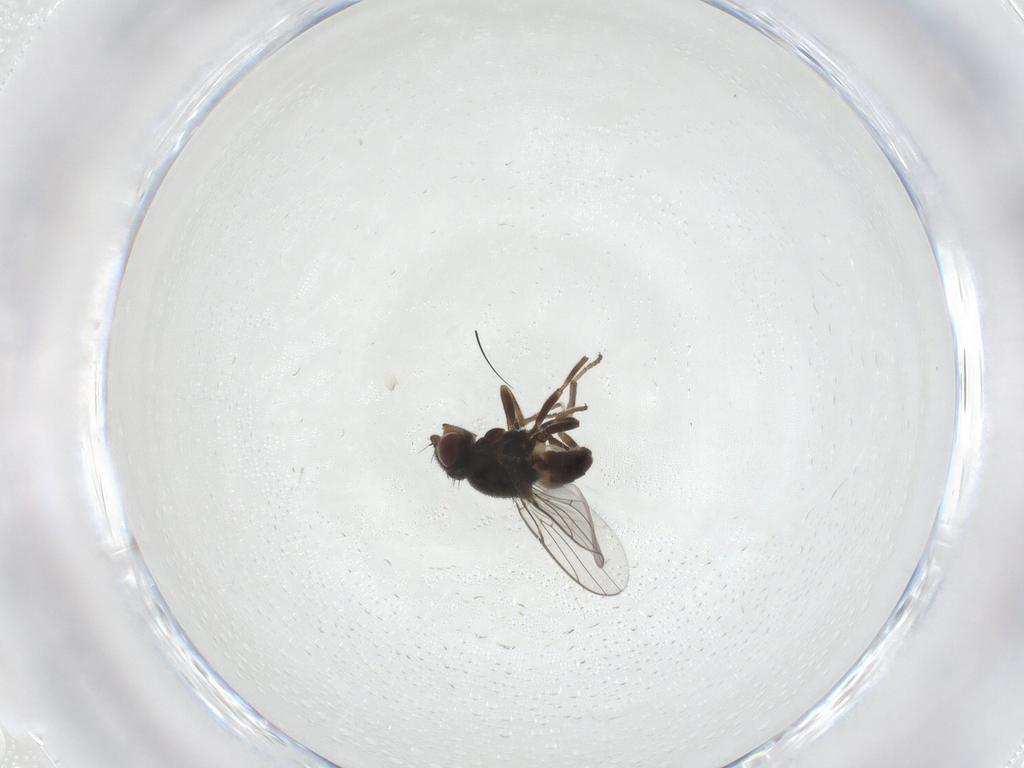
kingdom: Animalia
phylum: Arthropoda
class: Insecta
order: Diptera
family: Chloropidae
